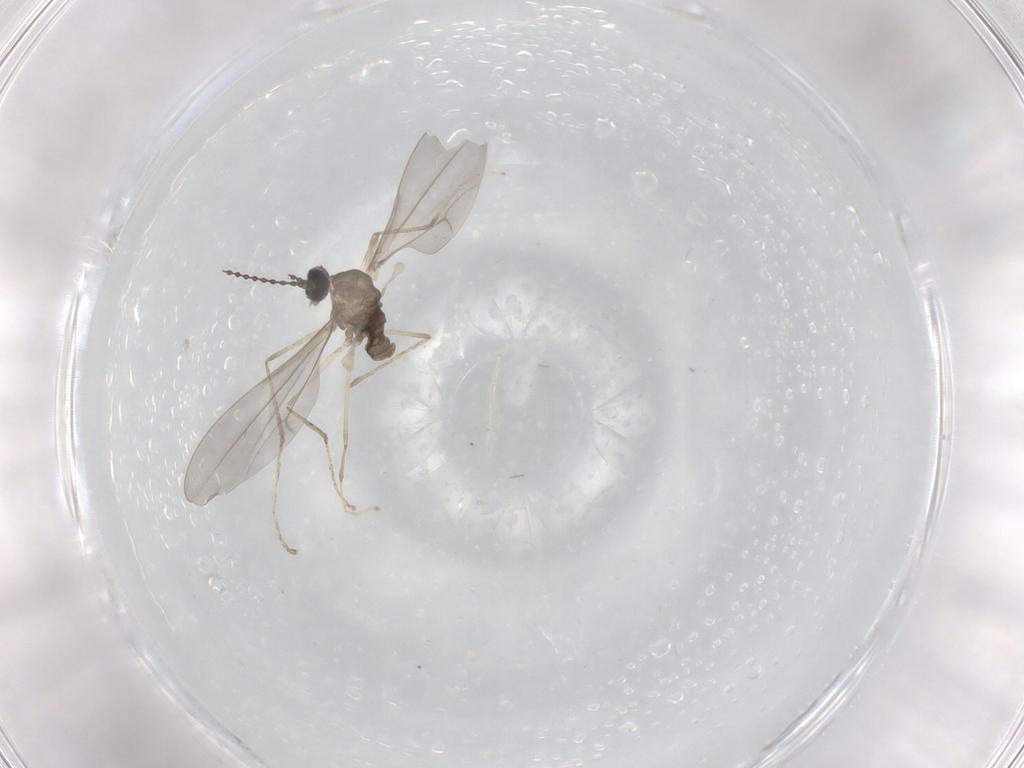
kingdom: Animalia
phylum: Arthropoda
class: Insecta
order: Diptera
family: Cecidomyiidae
